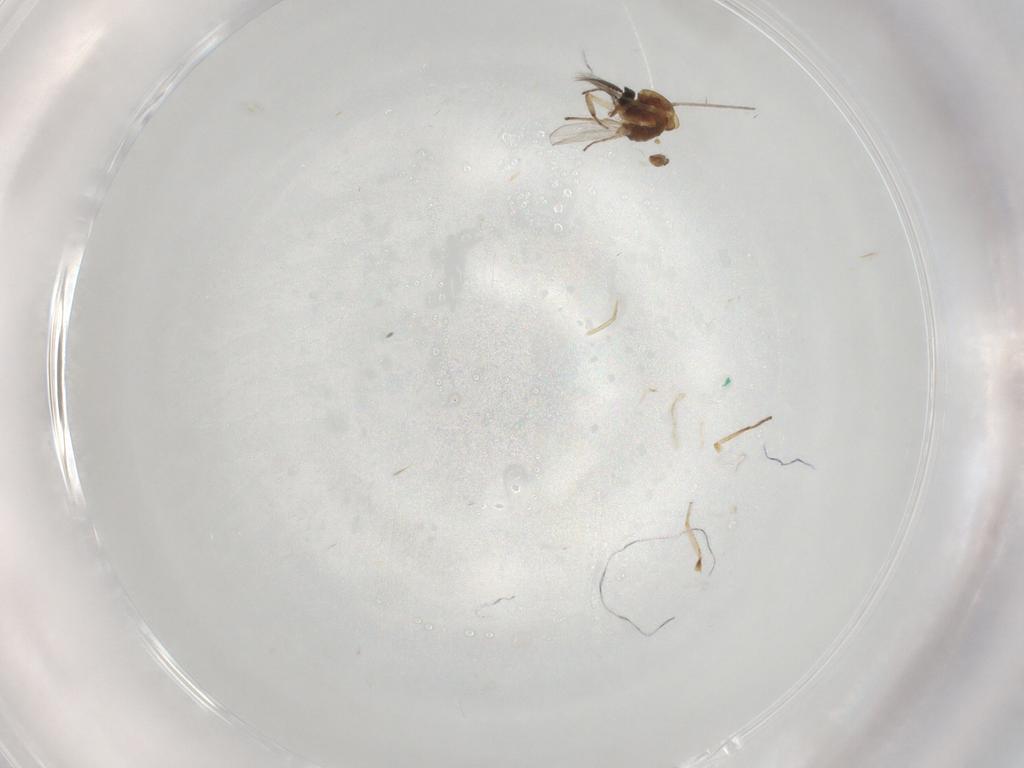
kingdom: Animalia
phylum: Arthropoda
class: Insecta
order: Diptera
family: Ceratopogonidae
